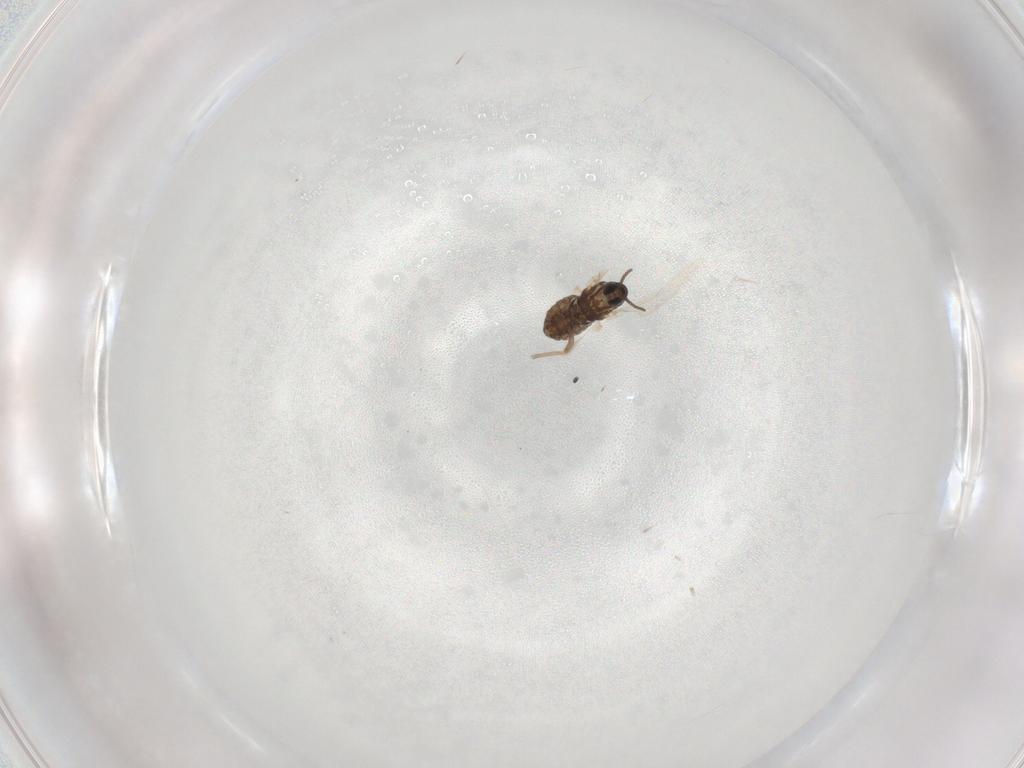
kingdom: Animalia
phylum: Arthropoda
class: Insecta
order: Diptera
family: Cecidomyiidae
